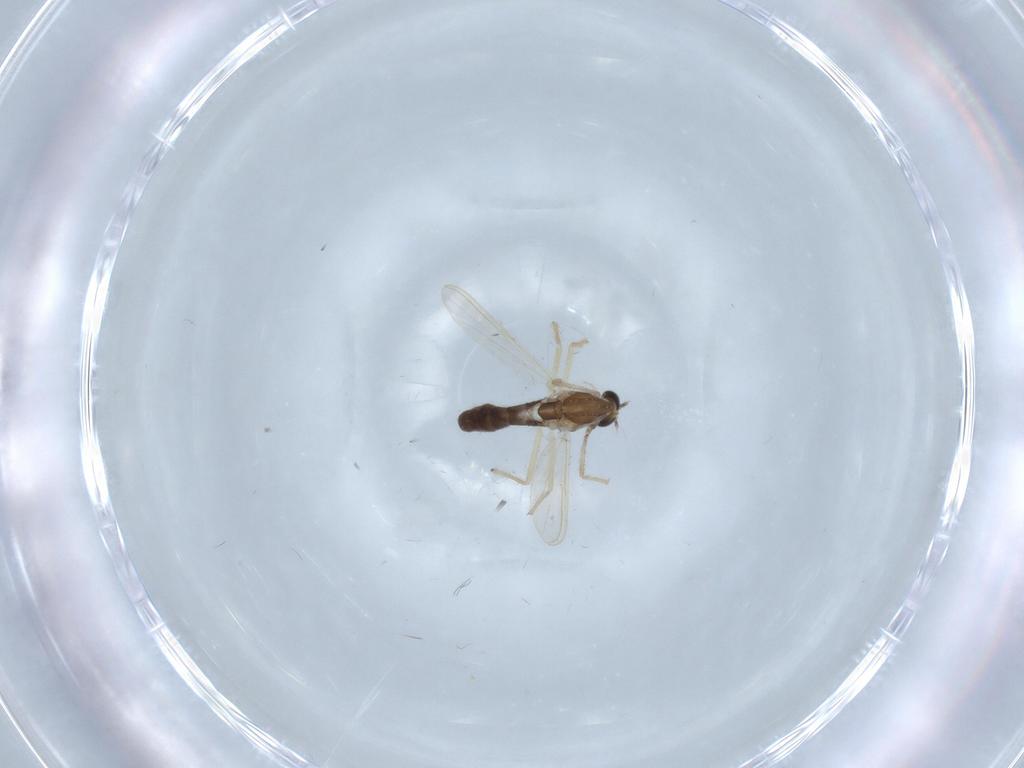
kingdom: Animalia
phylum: Arthropoda
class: Insecta
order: Diptera
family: Chironomidae
